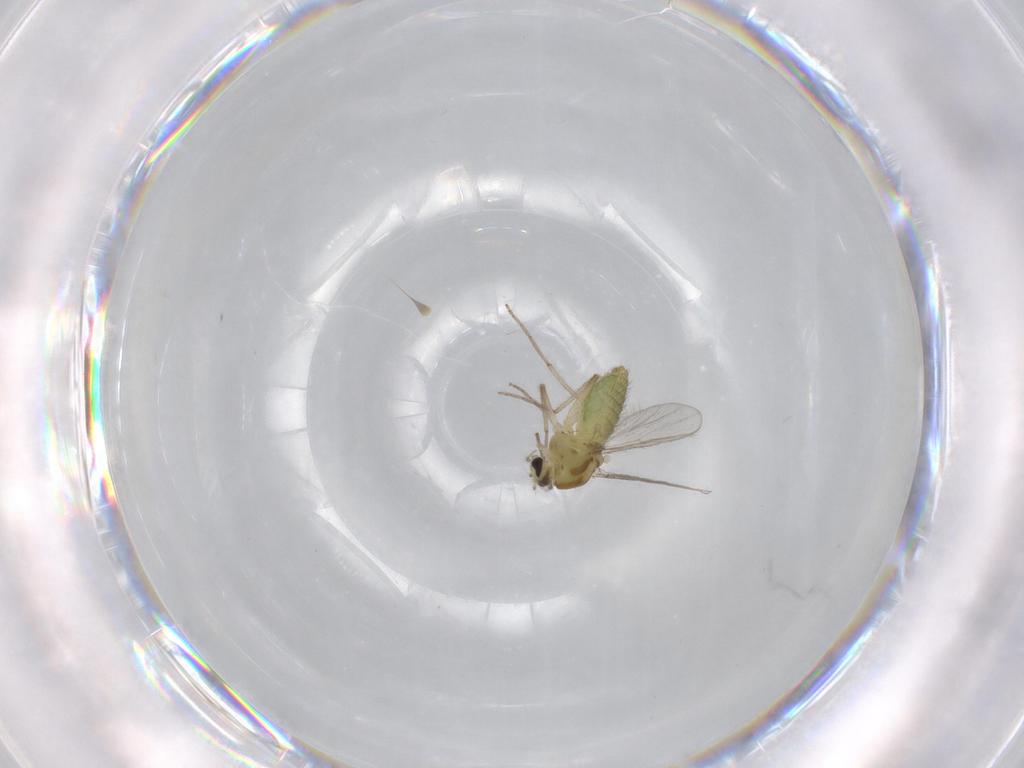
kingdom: Animalia
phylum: Arthropoda
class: Insecta
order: Diptera
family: Chironomidae
